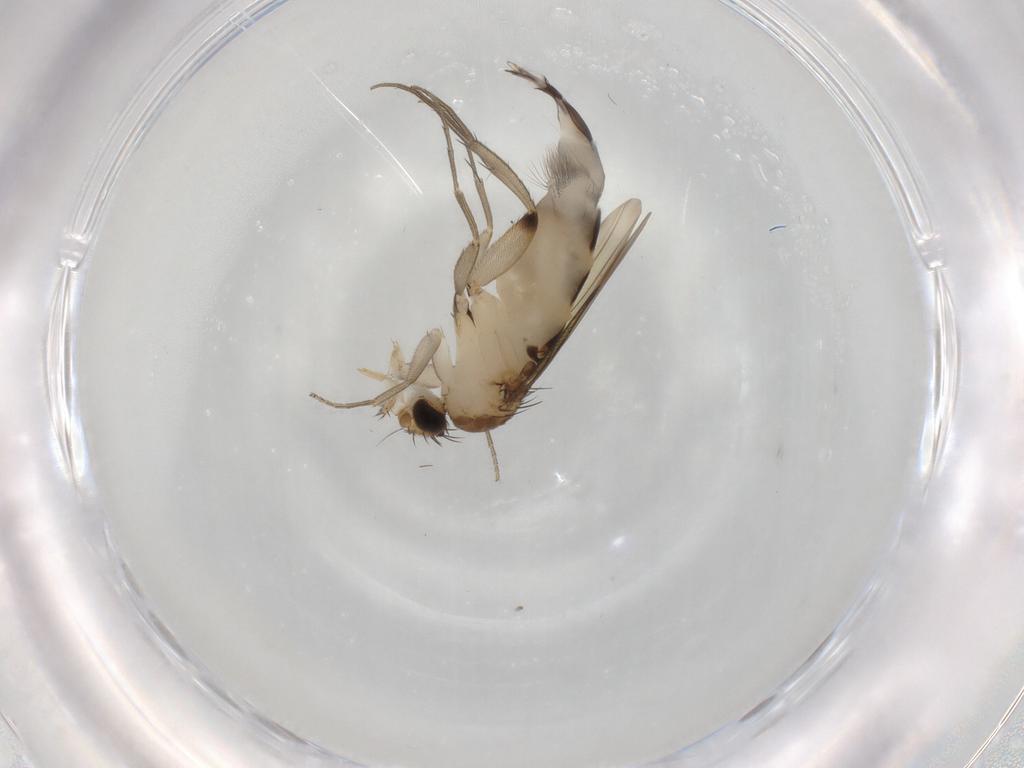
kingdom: Animalia
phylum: Arthropoda
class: Insecta
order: Diptera
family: Phoridae
